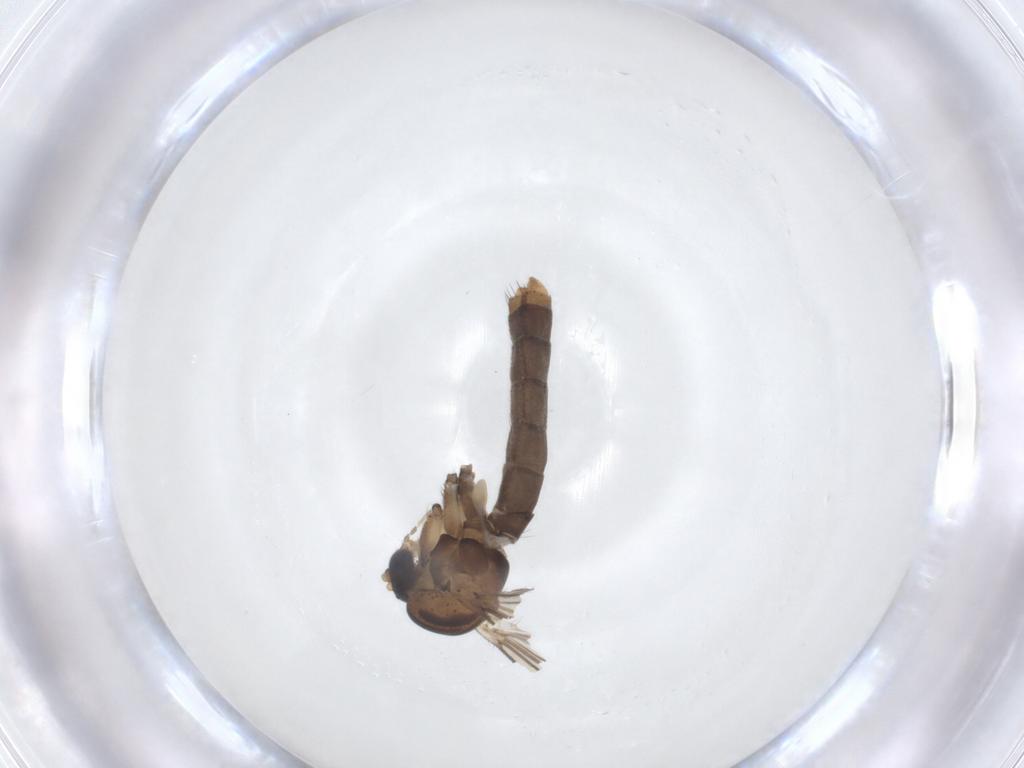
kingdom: Animalia
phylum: Arthropoda
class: Insecta
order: Diptera
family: Mycetophilidae
